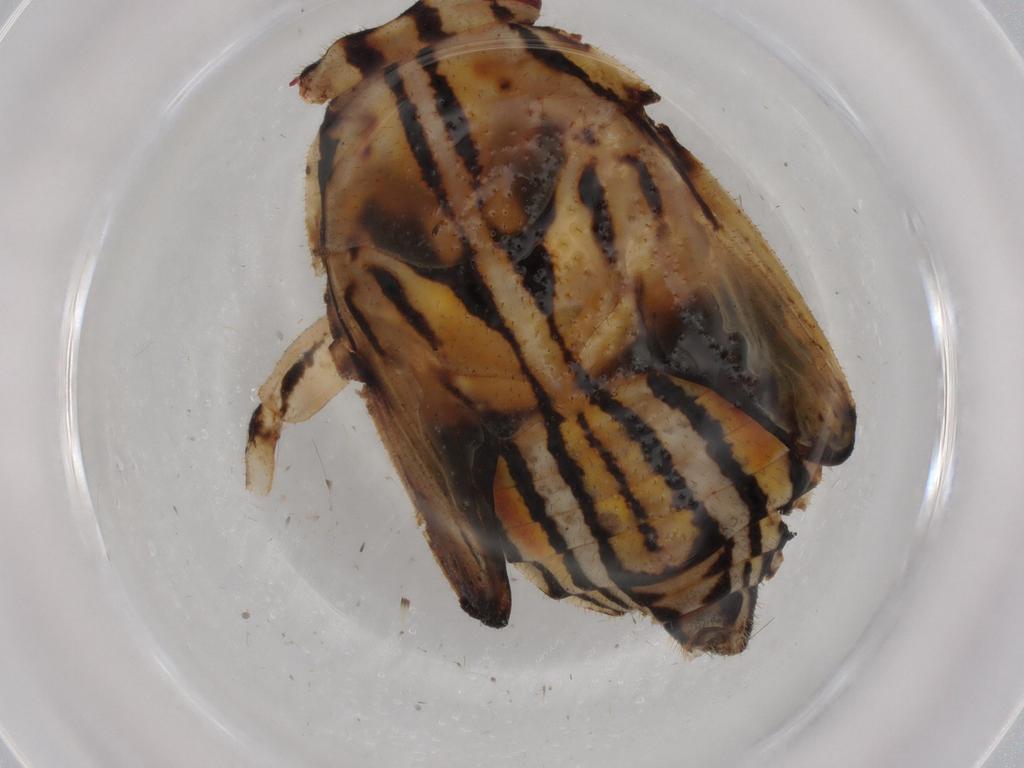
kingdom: Animalia
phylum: Arthropoda
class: Insecta
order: Hemiptera
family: Cicadellidae
